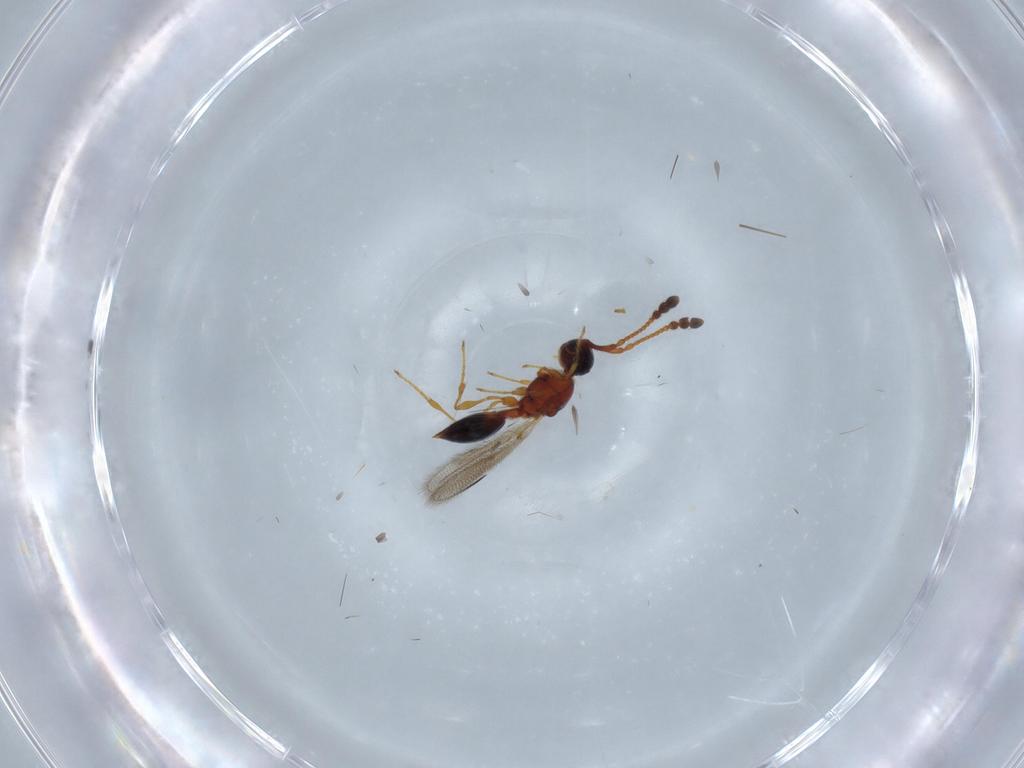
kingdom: Animalia
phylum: Arthropoda
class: Insecta
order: Hymenoptera
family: Diapriidae
